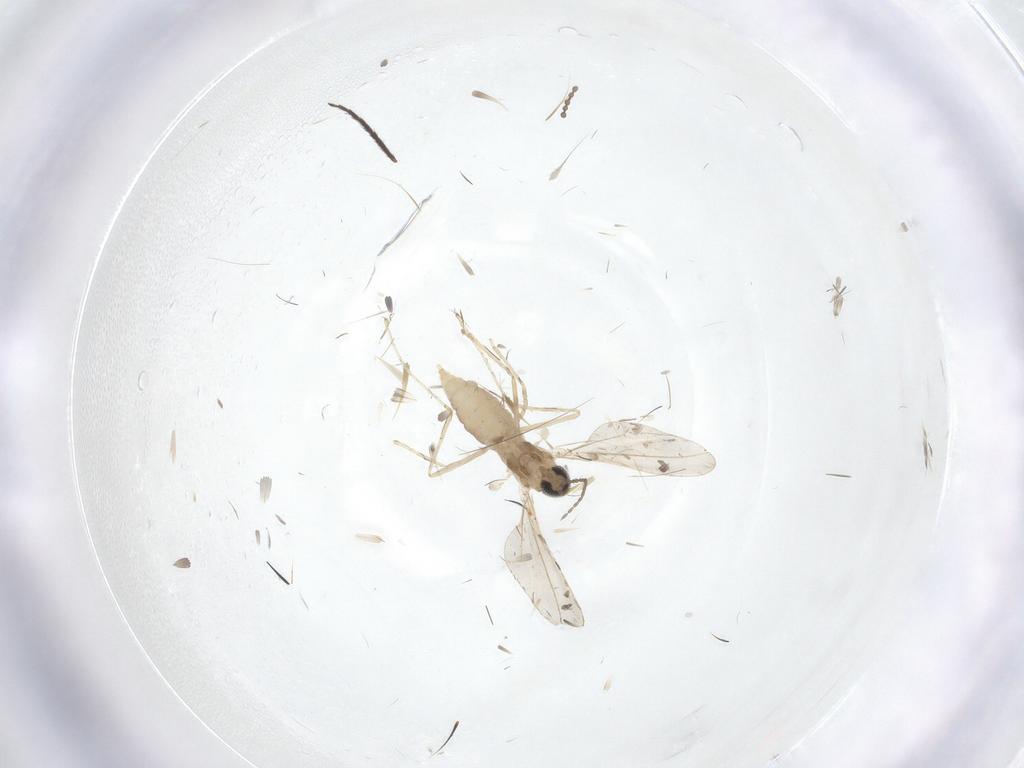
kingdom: Animalia
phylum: Arthropoda
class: Insecta
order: Diptera
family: Cecidomyiidae
